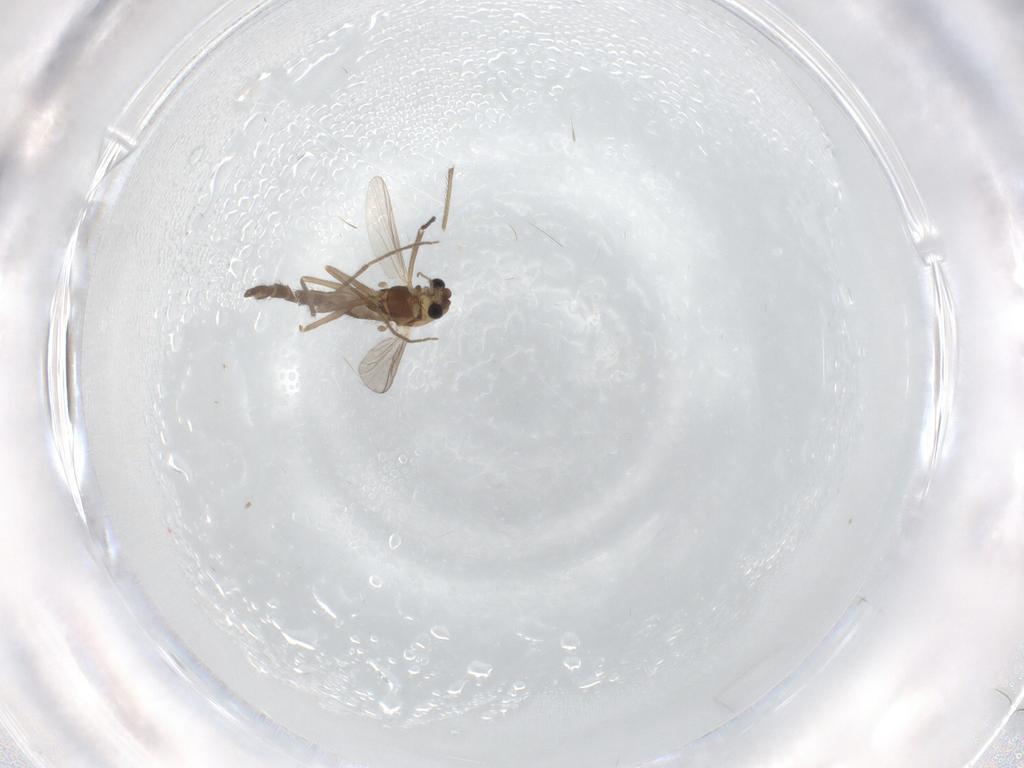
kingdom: Animalia
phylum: Arthropoda
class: Insecta
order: Diptera
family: Chironomidae
